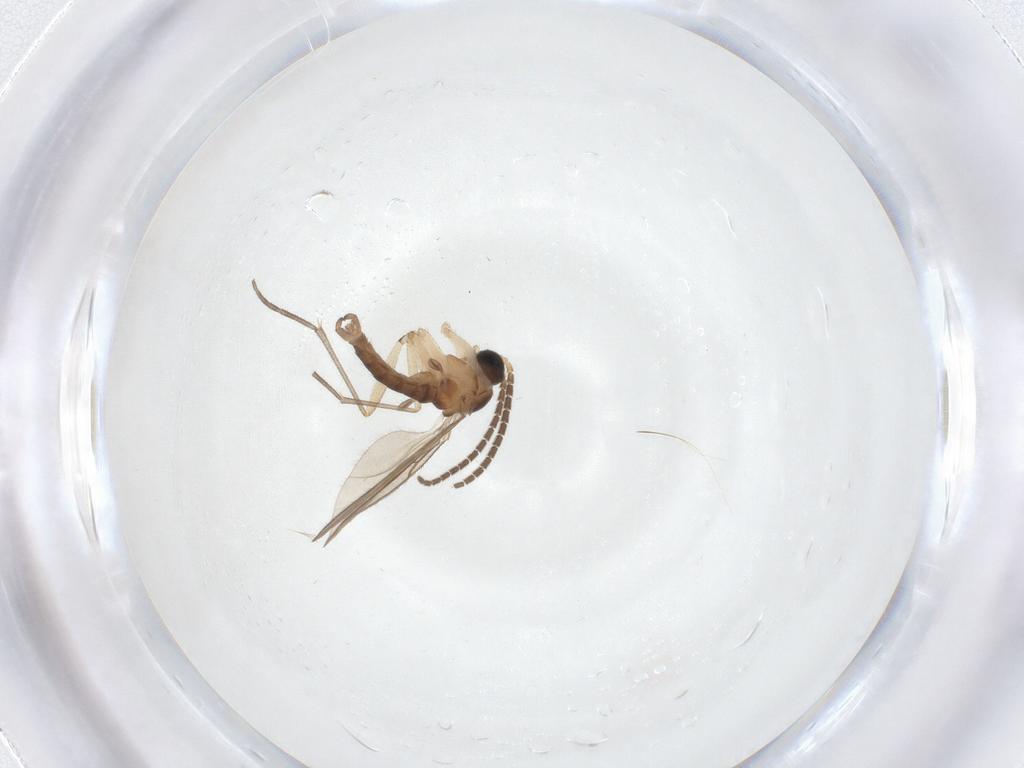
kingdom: Animalia
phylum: Arthropoda
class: Insecta
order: Diptera
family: Sciaridae
